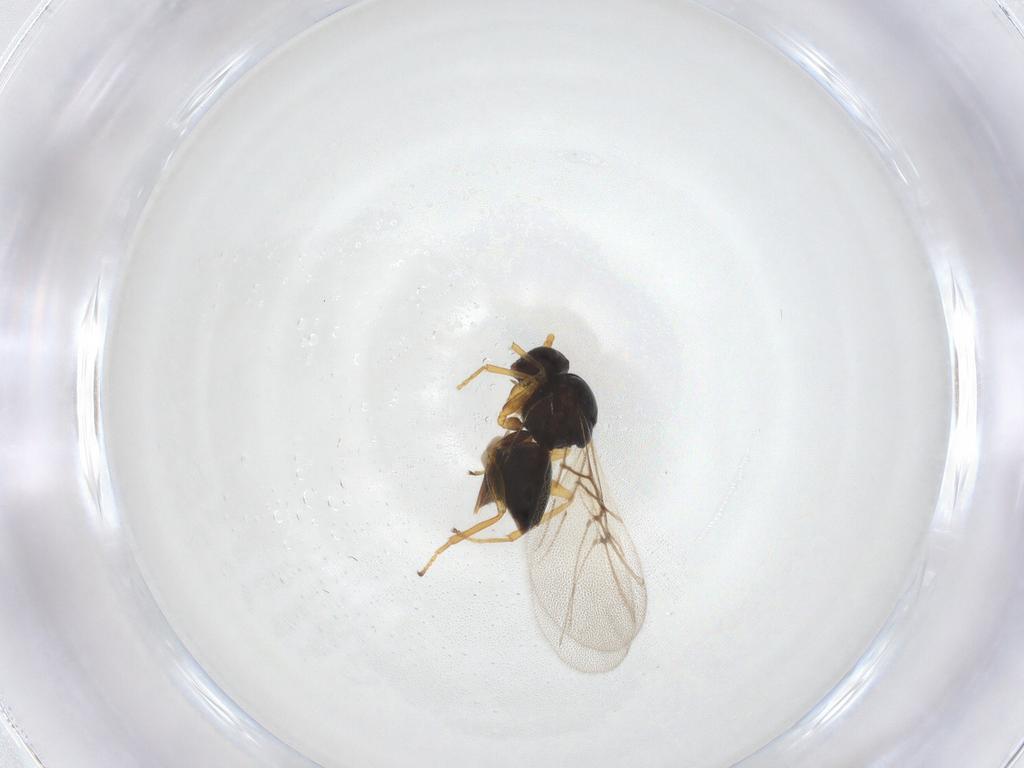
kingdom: Animalia
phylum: Arthropoda
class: Insecta
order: Hymenoptera
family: Cynipidae
